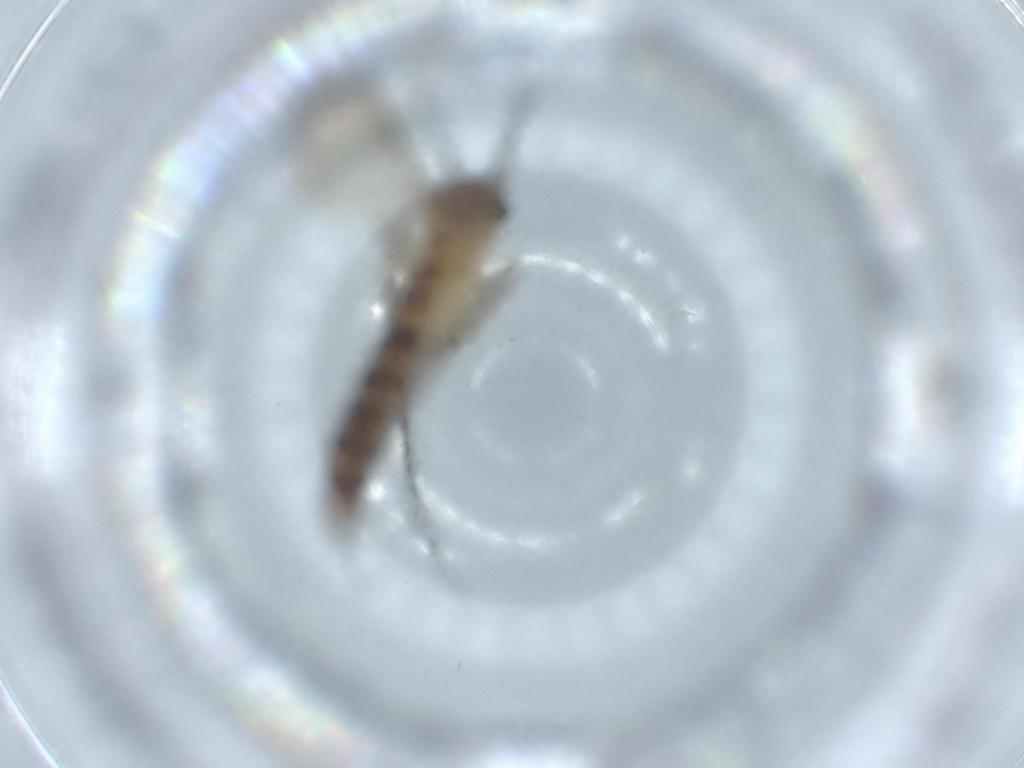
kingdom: Animalia
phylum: Arthropoda
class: Insecta
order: Diptera
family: Keroplatidae
